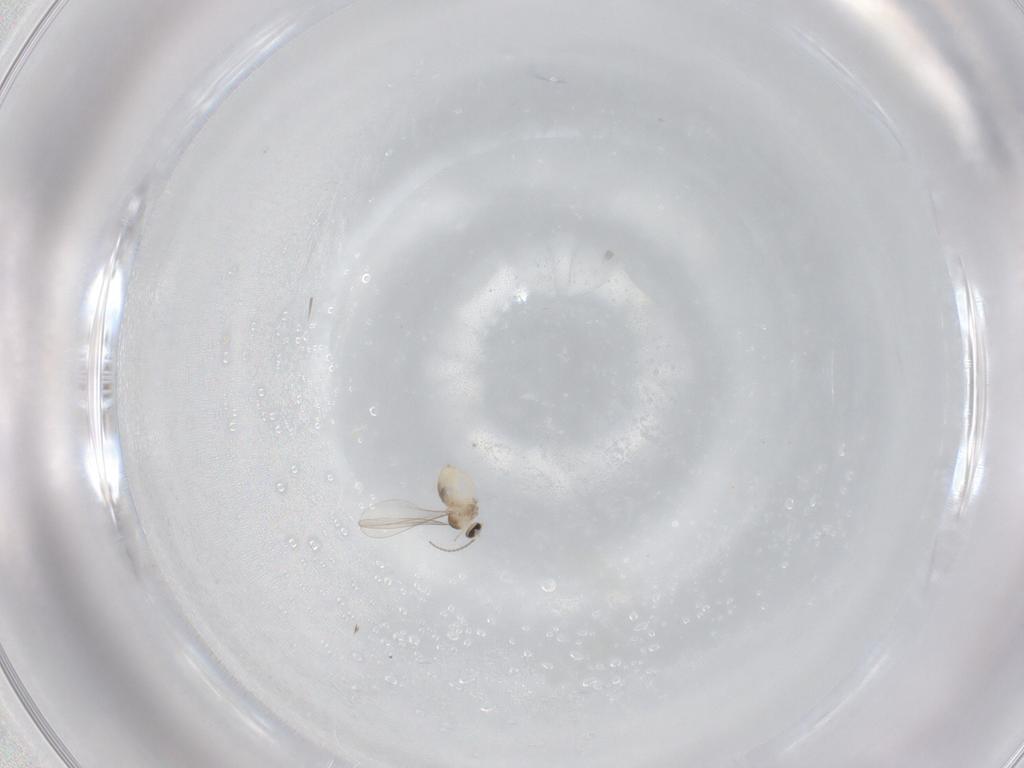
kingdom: Animalia
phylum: Arthropoda
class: Insecta
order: Diptera
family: Cecidomyiidae
